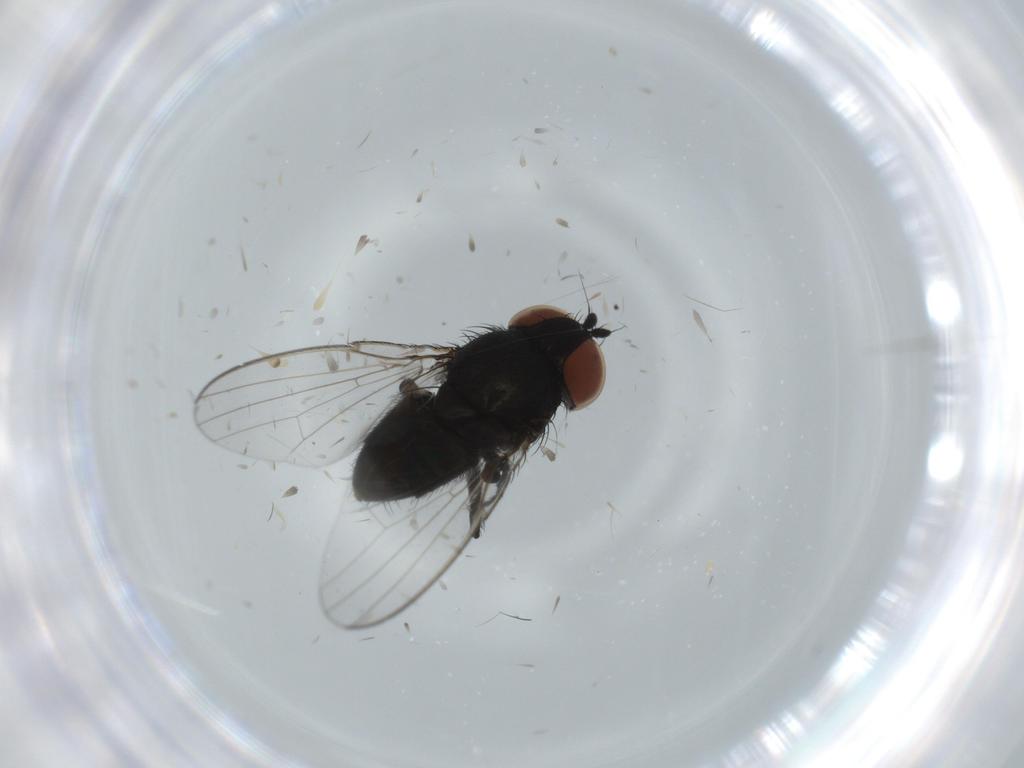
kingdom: Animalia
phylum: Arthropoda
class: Insecta
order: Diptera
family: Milichiidae
